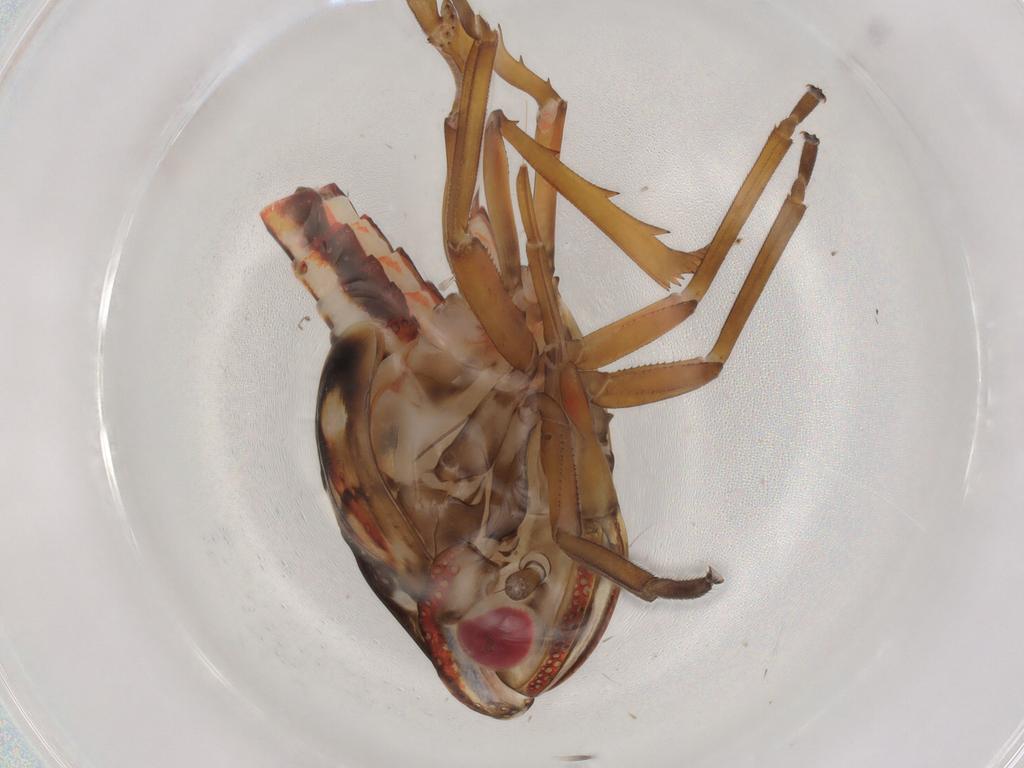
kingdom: Animalia
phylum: Arthropoda
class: Insecta
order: Hemiptera
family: Nogodinidae
